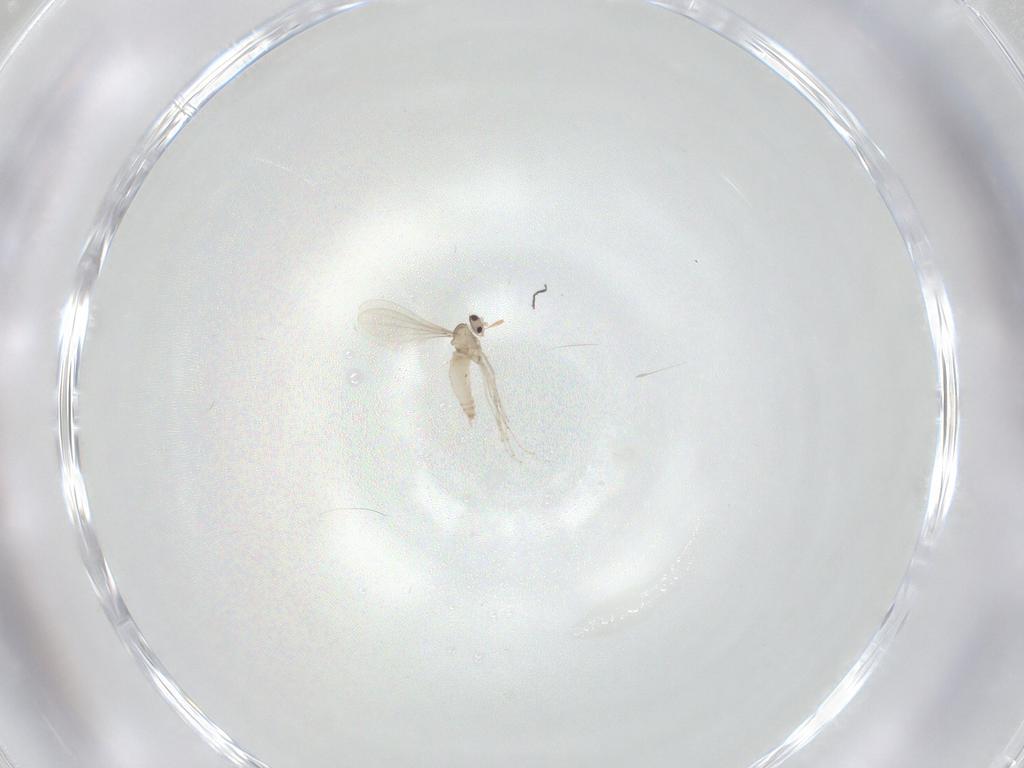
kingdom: Animalia
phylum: Arthropoda
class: Insecta
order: Diptera
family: Cecidomyiidae
